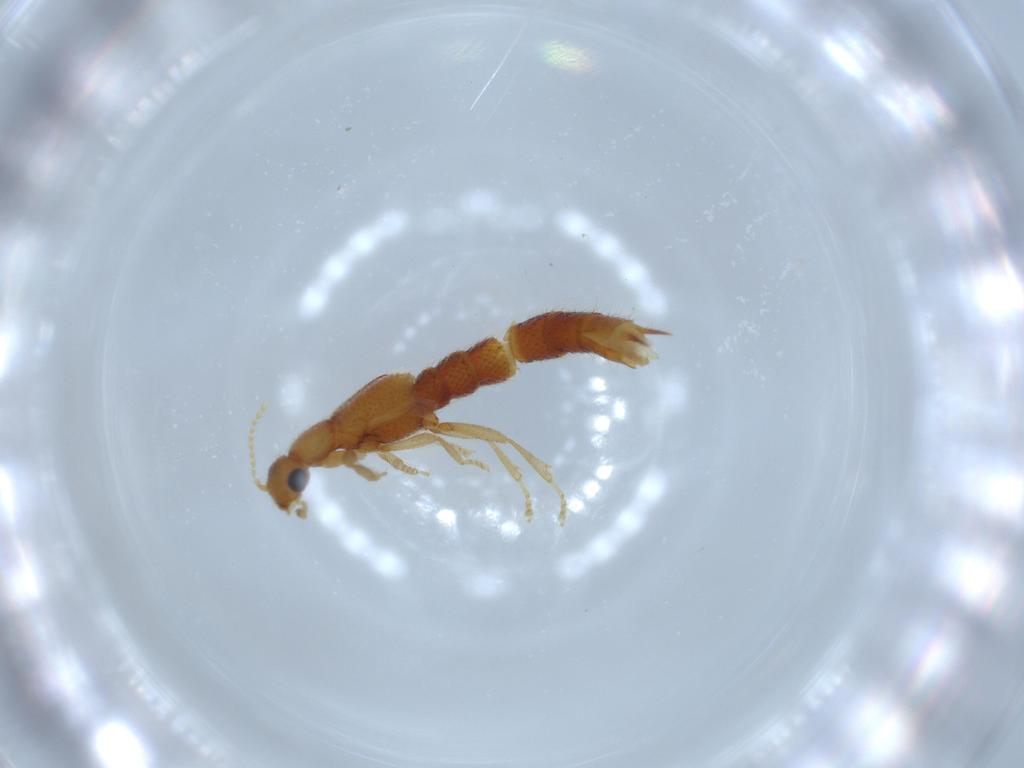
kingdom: Animalia
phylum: Arthropoda
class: Insecta
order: Coleoptera
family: Staphylinidae
